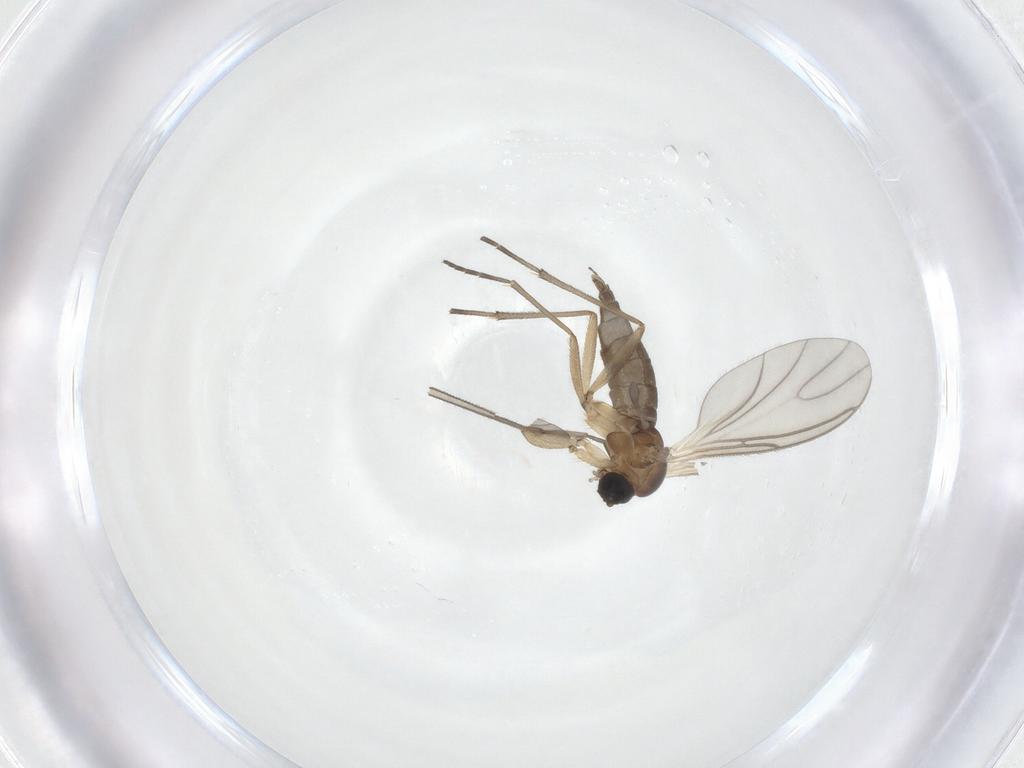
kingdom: Animalia
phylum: Arthropoda
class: Insecta
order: Diptera
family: Sciaridae
